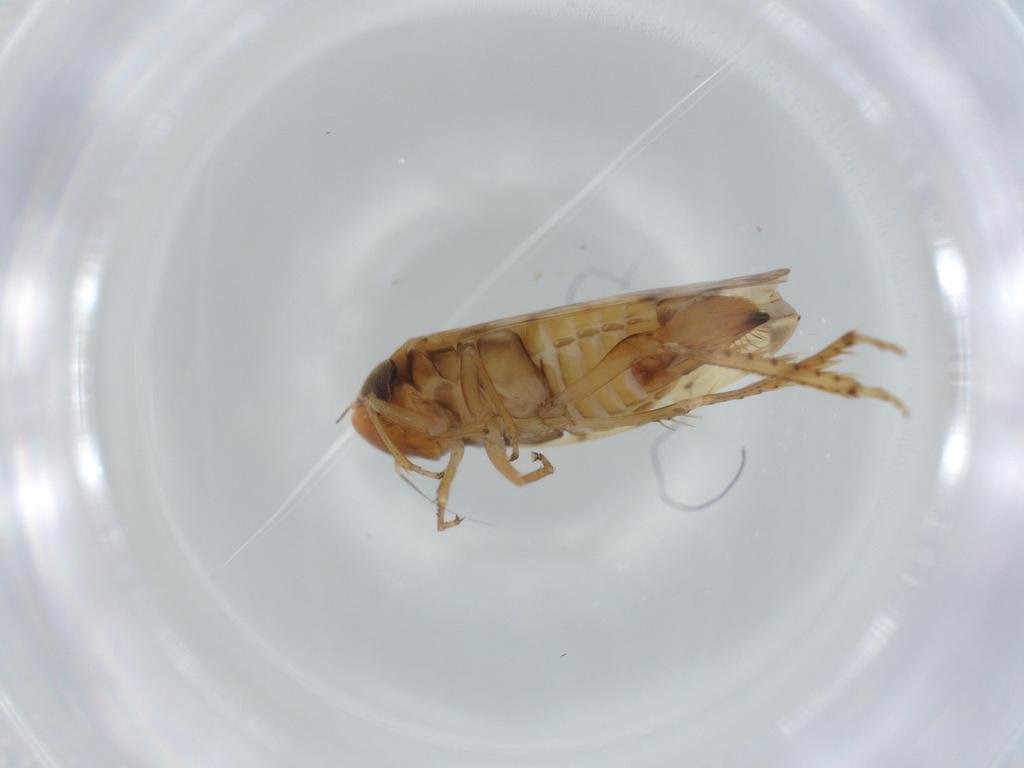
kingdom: Animalia
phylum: Arthropoda
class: Insecta
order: Hemiptera
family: Cicadellidae
